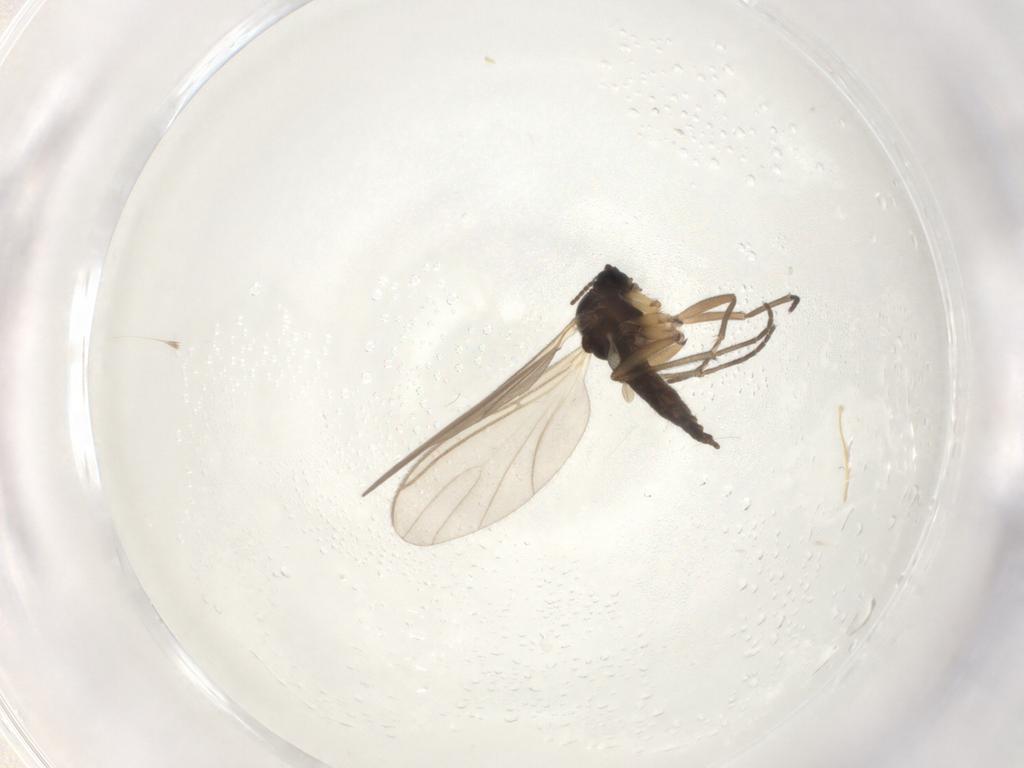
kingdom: Animalia
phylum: Arthropoda
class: Insecta
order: Diptera
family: Sciaridae
